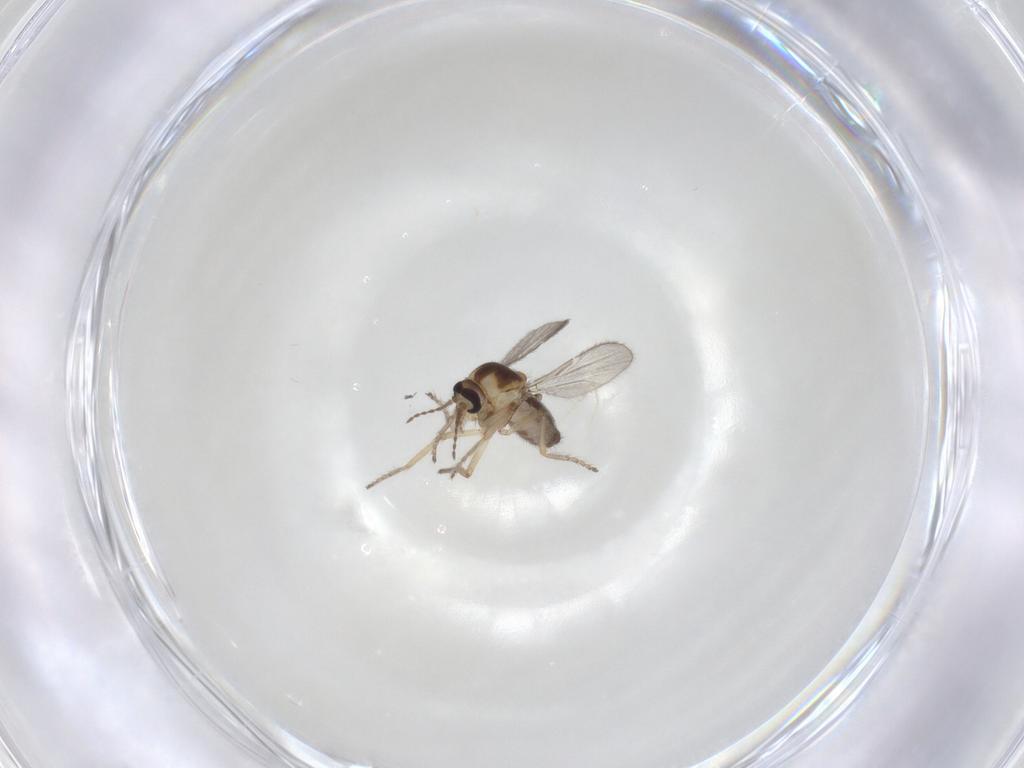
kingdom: Animalia
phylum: Arthropoda
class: Insecta
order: Diptera
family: Ceratopogonidae
